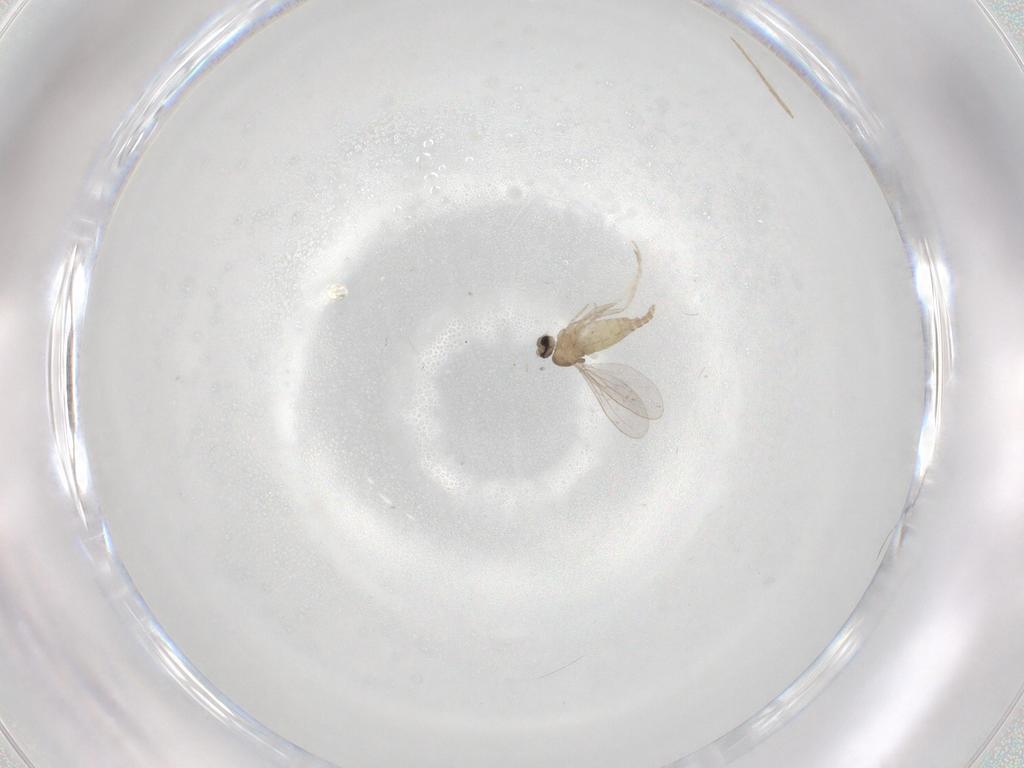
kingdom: Animalia
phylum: Arthropoda
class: Insecta
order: Diptera
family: Cecidomyiidae
